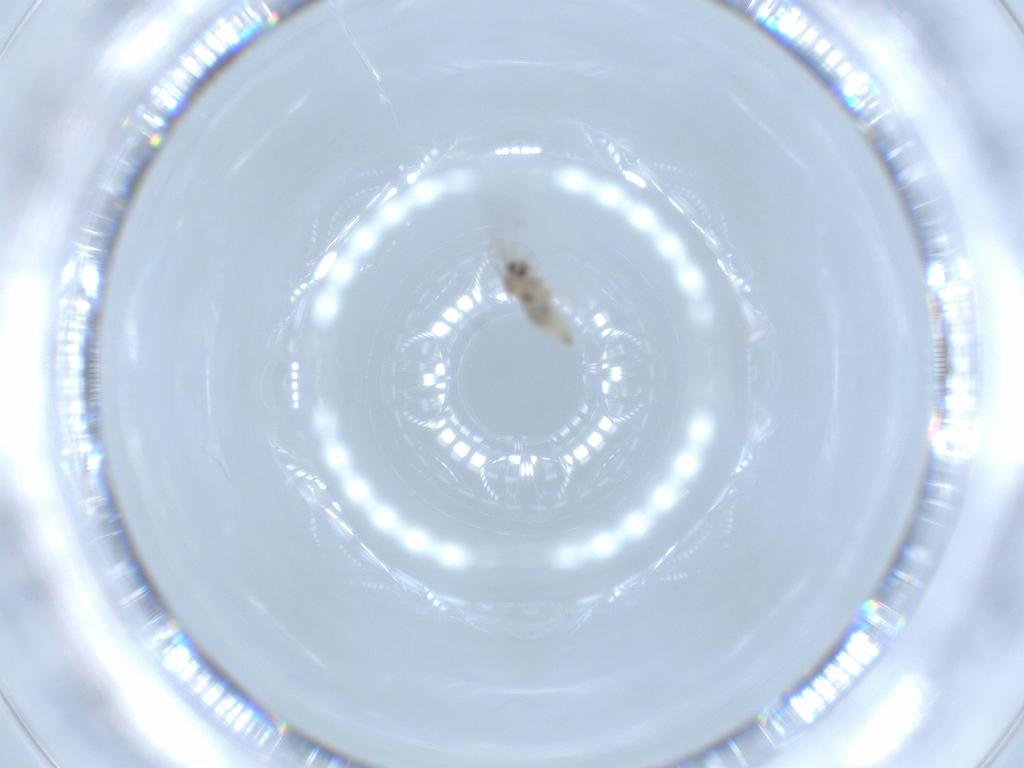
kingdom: Animalia
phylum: Arthropoda
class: Insecta
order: Diptera
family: Cecidomyiidae
